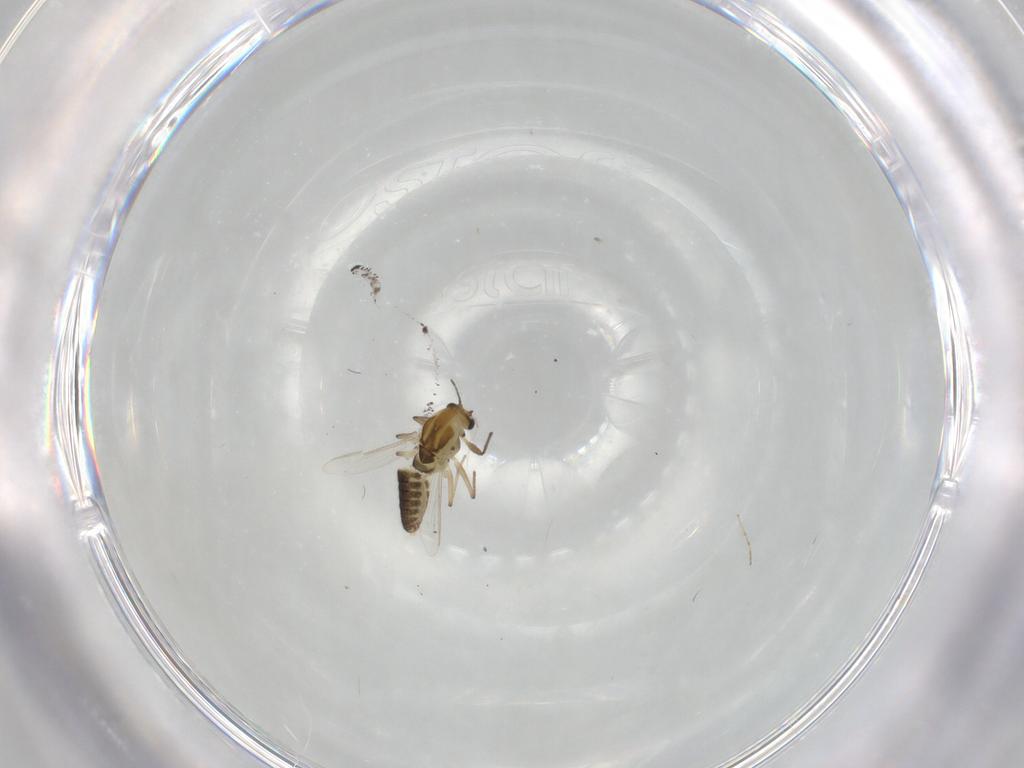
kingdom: Animalia
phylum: Arthropoda
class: Insecta
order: Diptera
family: Chironomidae
